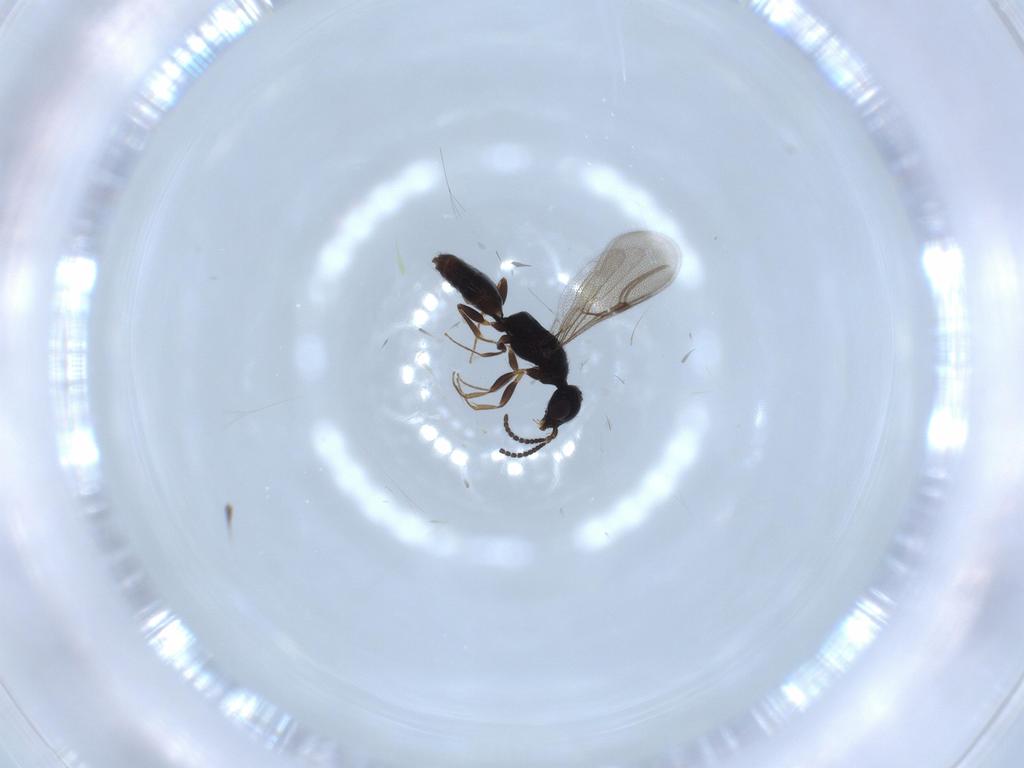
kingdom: Animalia
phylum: Arthropoda
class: Insecta
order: Hymenoptera
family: Bethylidae
